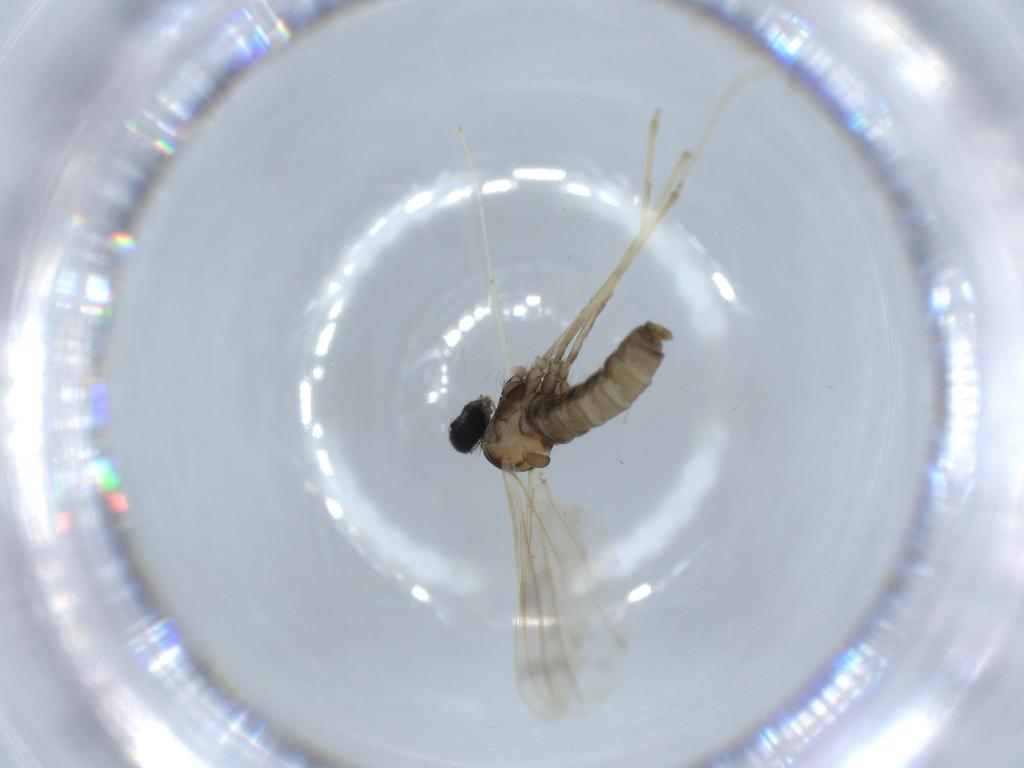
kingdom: Animalia
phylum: Arthropoda
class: Insecta
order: Diptera
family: Cecidomyiidae
